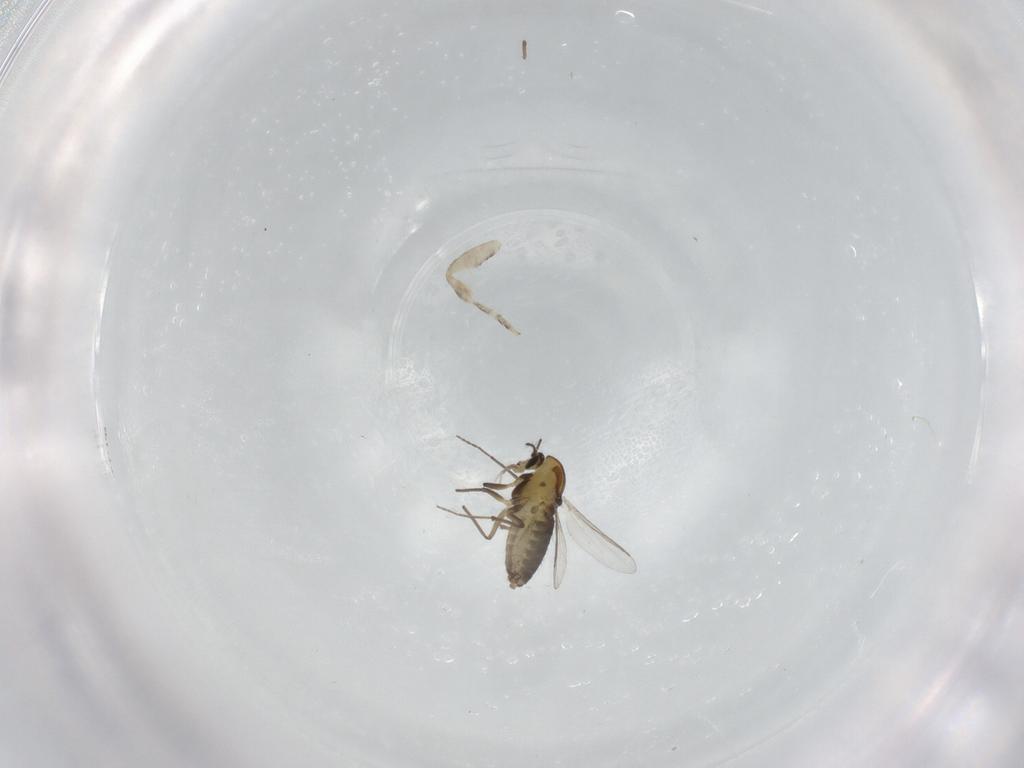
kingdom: Animalia
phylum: Arthropoda
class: Insecta
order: Diptera
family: Chironomidae
